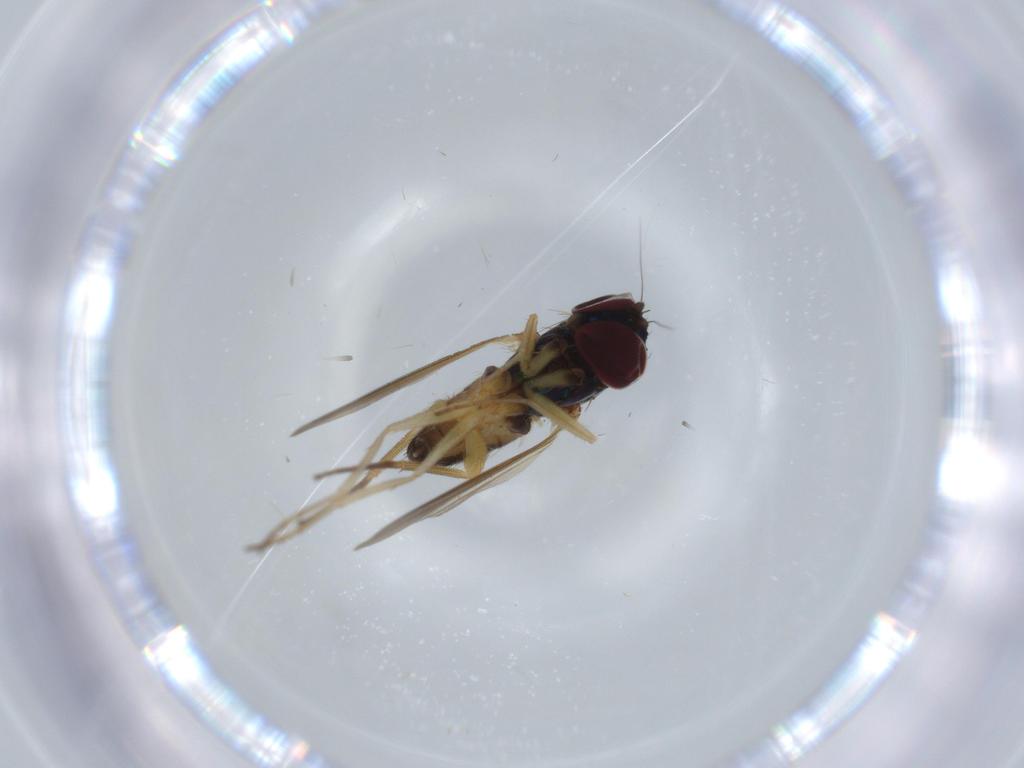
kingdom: Animalia
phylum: Arthropoda
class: Insecta
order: Diptera
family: Dolichopodidae
